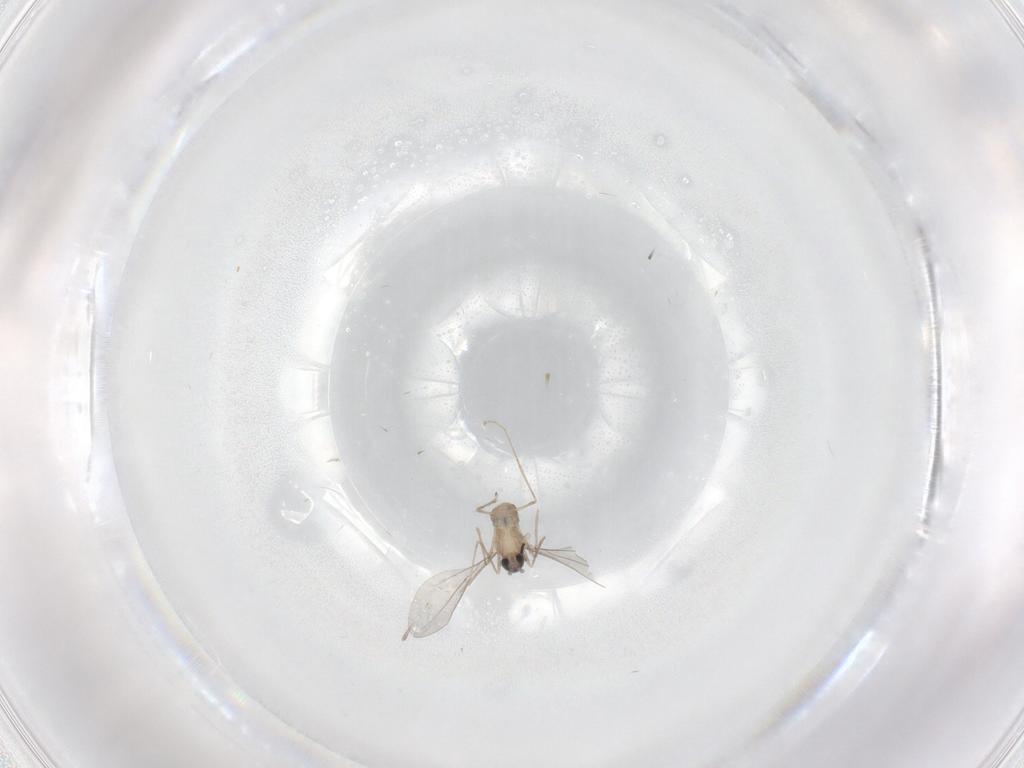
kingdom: Animalia
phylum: Arthropoda
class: Insecta
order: Diptera
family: Cecidomyiidae
